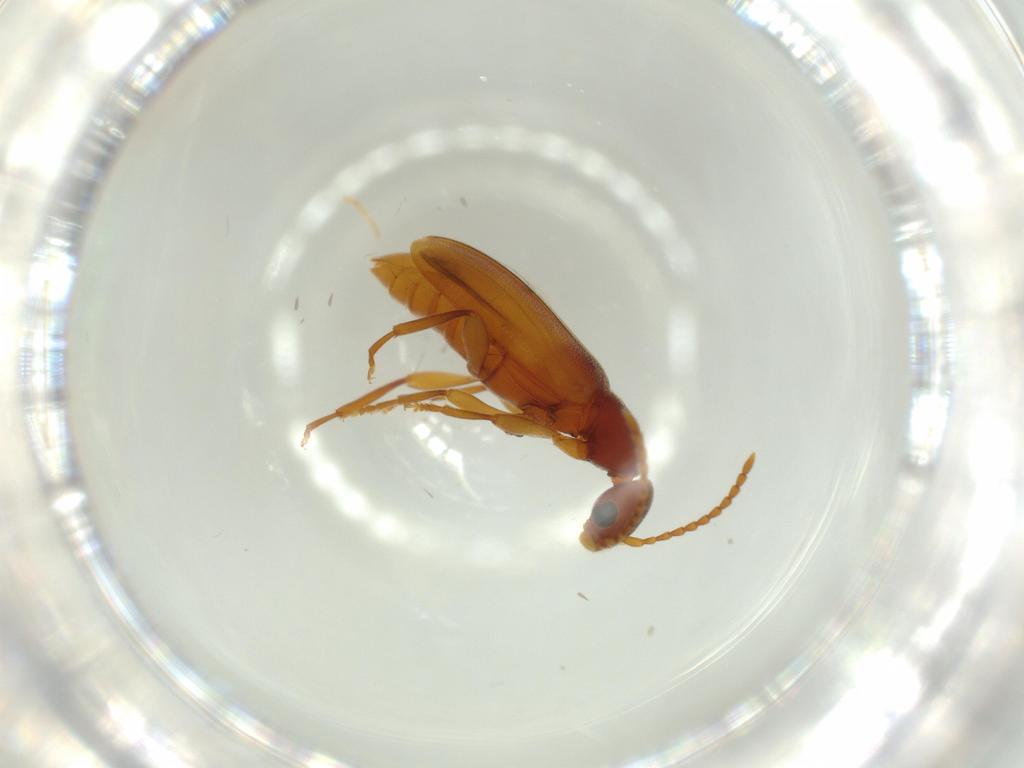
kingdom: Animalia
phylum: Arthropoda
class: Insecta
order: Coleoptera
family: Anthicidae
